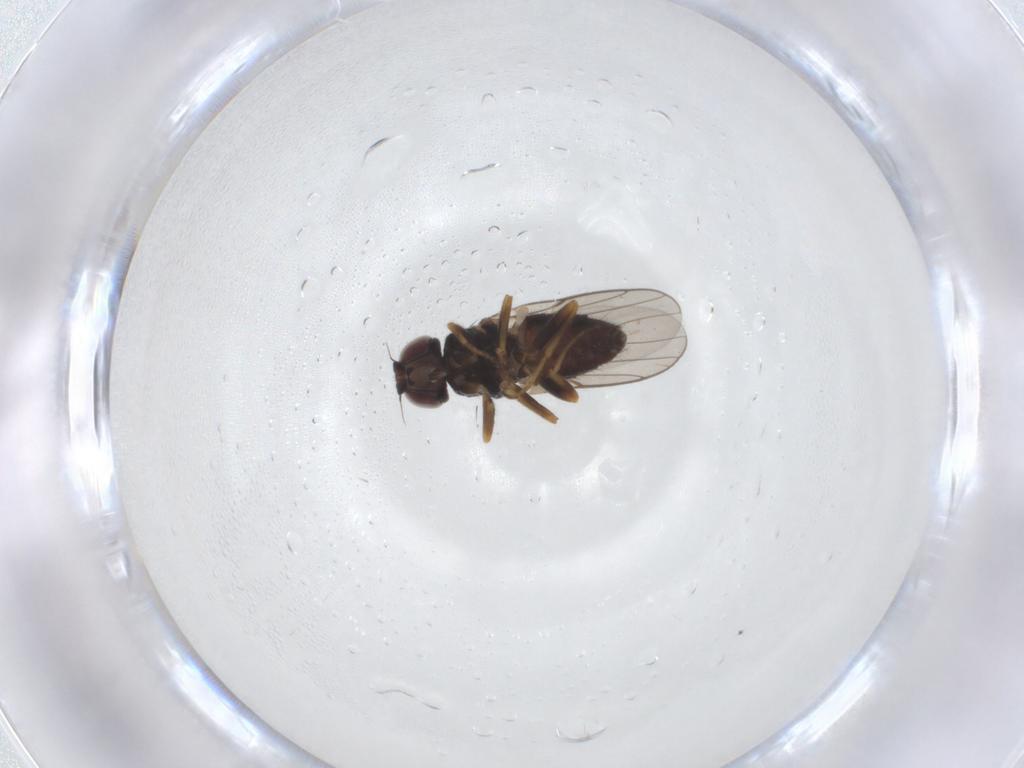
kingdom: Animalia
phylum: Arthropoda
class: Insecta
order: Diptera
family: Chloropidae
